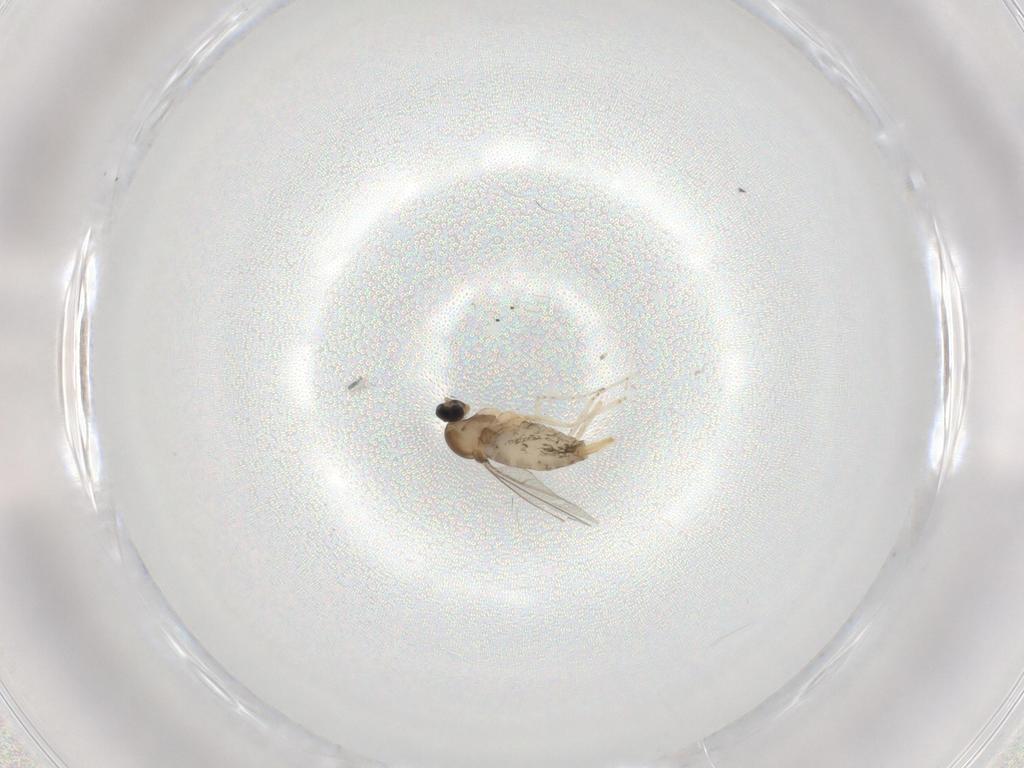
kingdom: Animalia
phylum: Arthropoda
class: Insecta
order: Diptera
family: Cecidomyiidae
